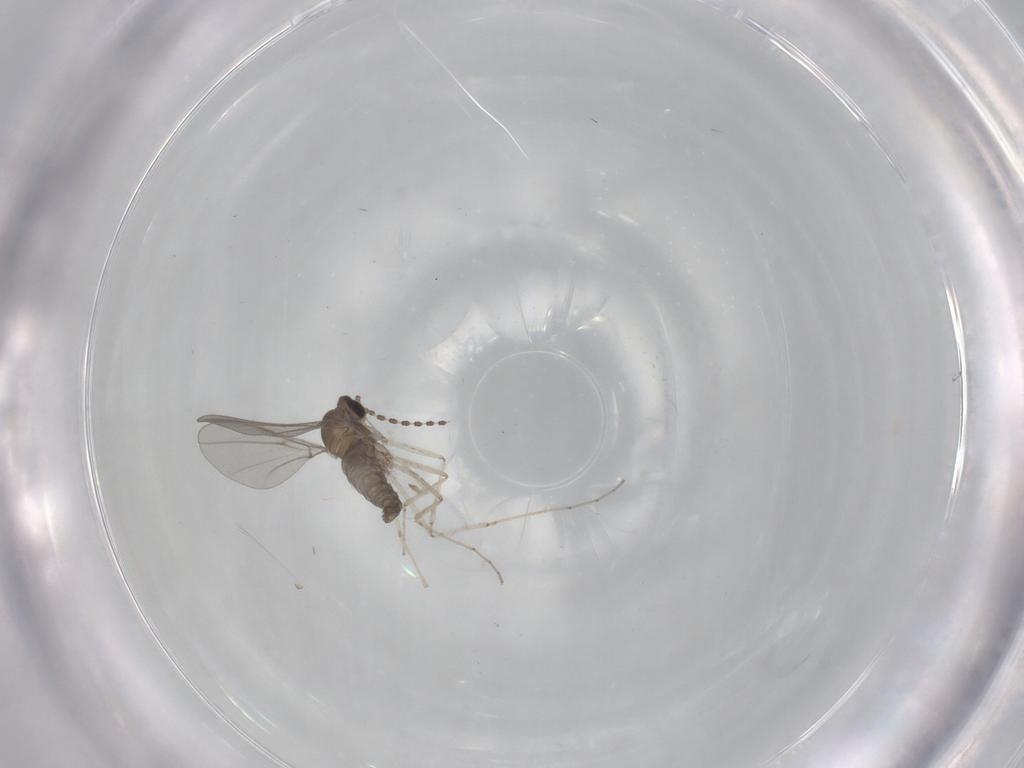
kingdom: Animalia
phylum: Arthropoda
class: Insecta
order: Diptera
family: Cecidomyiidae
